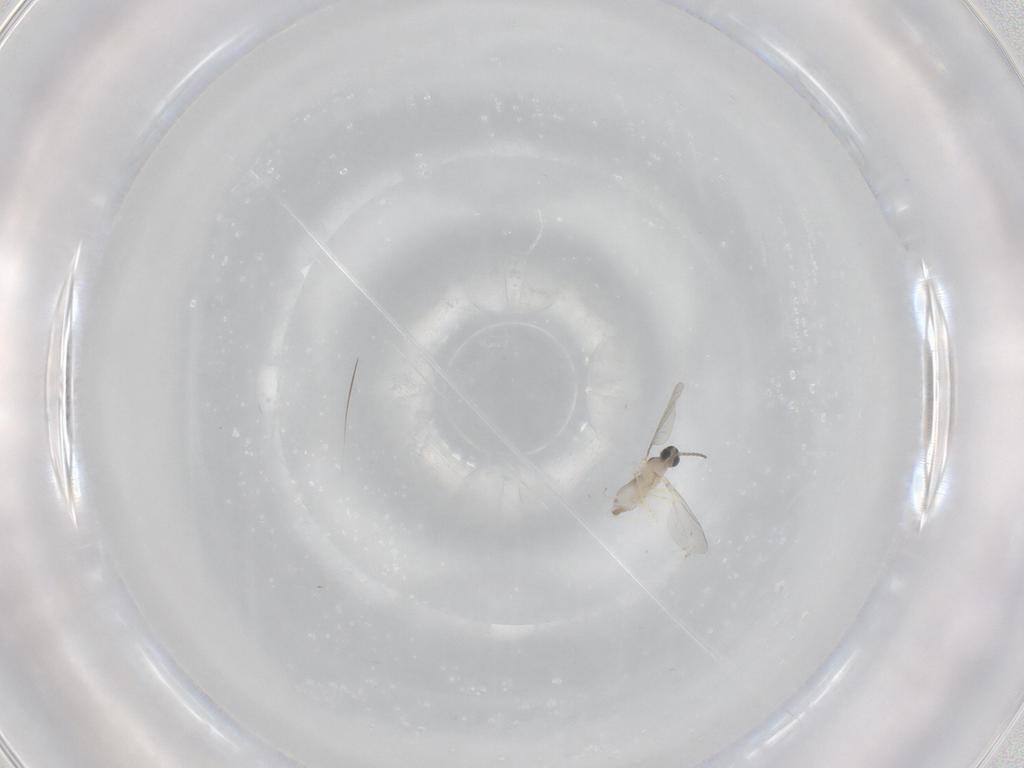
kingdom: Animalia
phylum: Arthropoda
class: Insecta
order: Diptera
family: Cecidomyiidae
